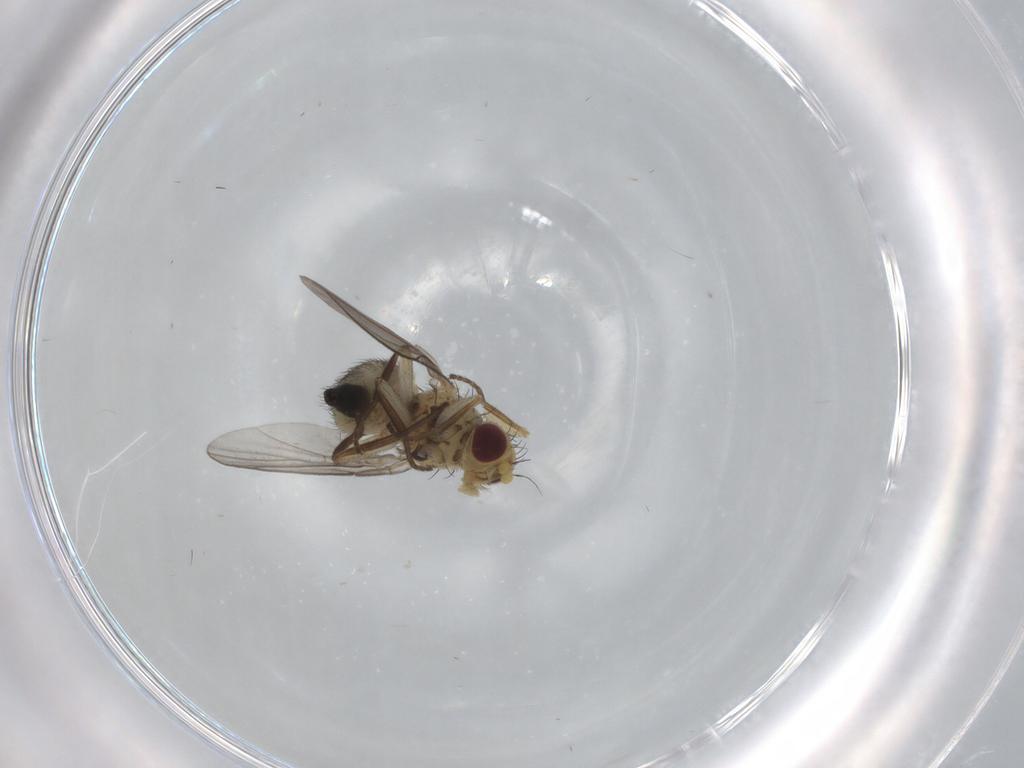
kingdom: Animalia
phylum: Arthropoda
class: Insecta
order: Diptera
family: Agromyzidae
